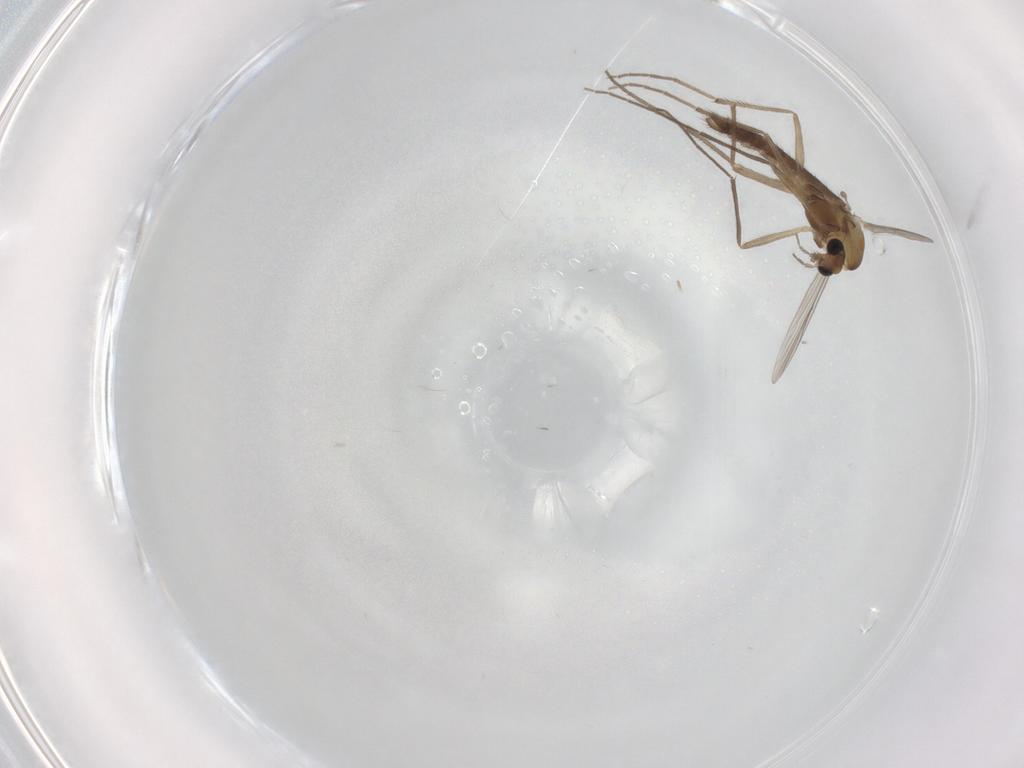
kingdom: Animalia
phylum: Arthropoda
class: Insecta
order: Diptera
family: Chironomidae
